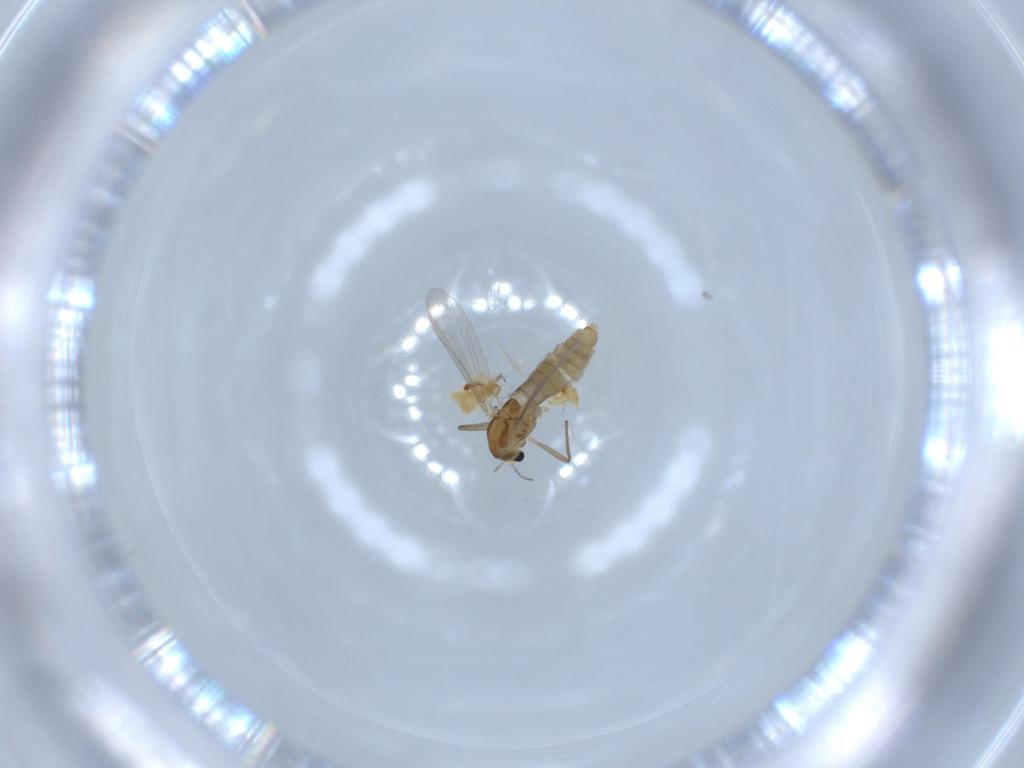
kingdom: Animalia
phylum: Arthropoda
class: Insecta
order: Diptera
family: Chironomidae
